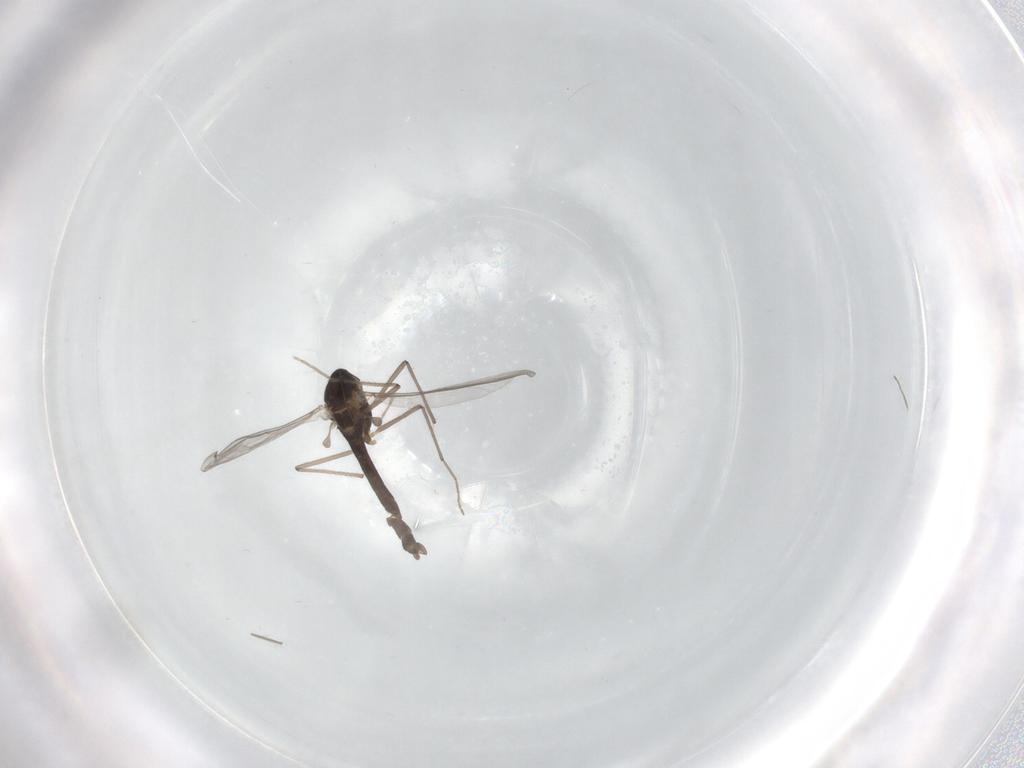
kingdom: Animalia
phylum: Arthropoda
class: Insecta
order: Diptera
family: Chironomidae
